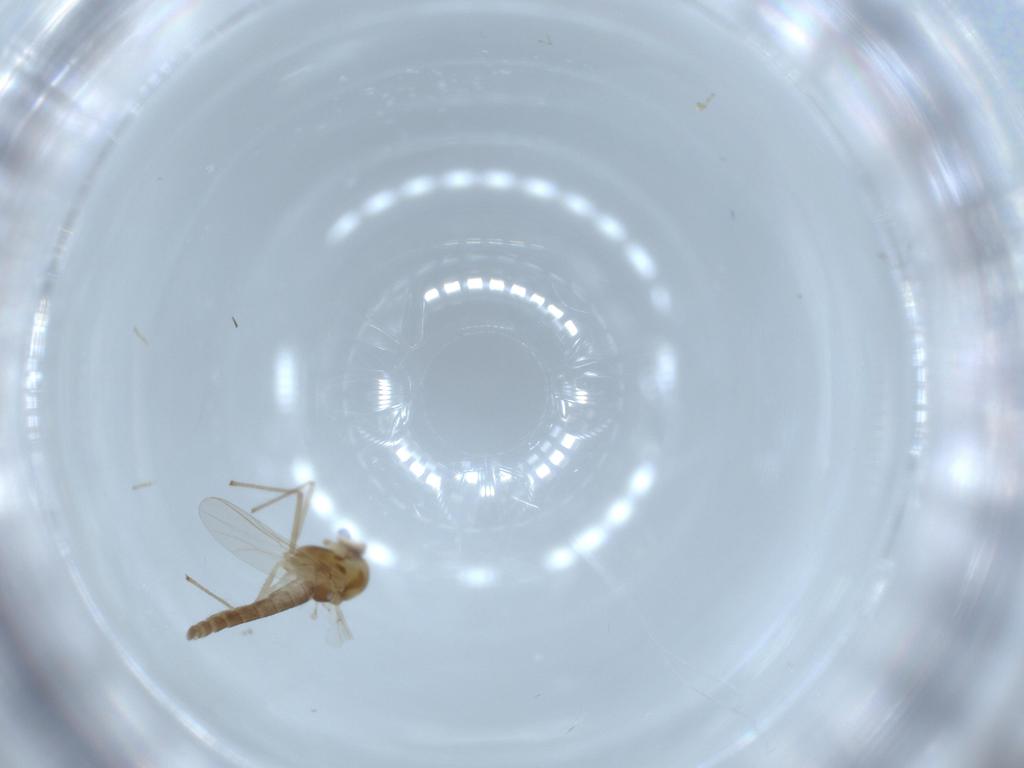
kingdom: Animalia
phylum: Arthropoda
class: Insecta
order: Diptera
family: Chironomidae
